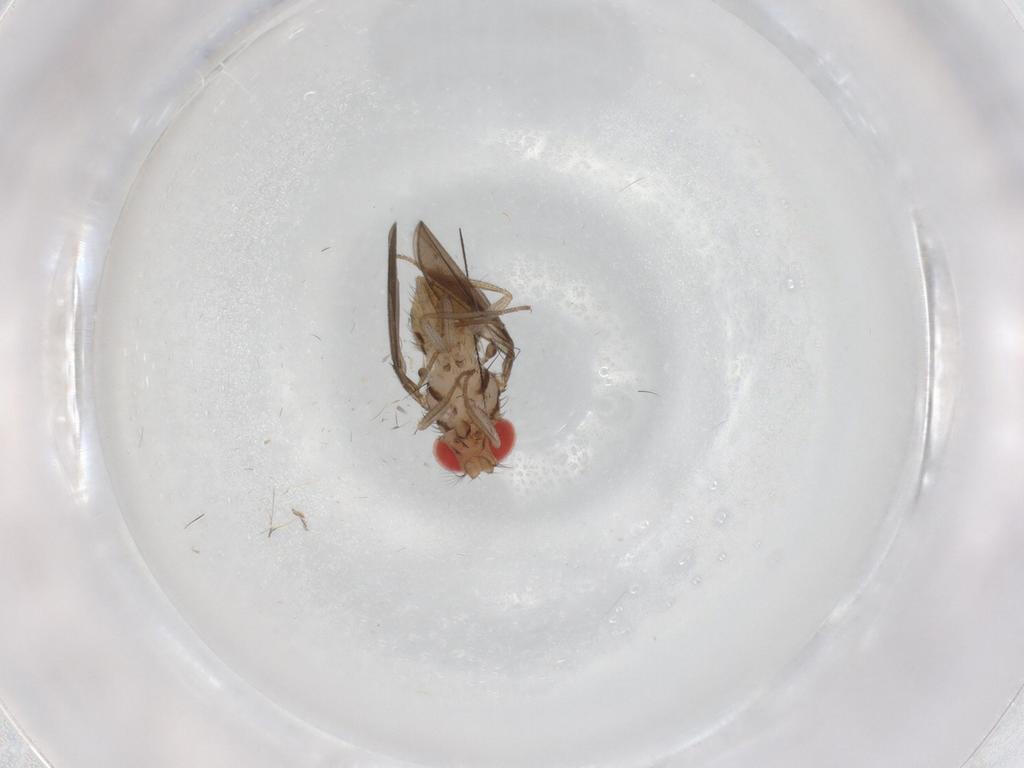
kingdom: Animalia
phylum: Arthropoda
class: Insecta
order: Diptera
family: Drosophilidae
